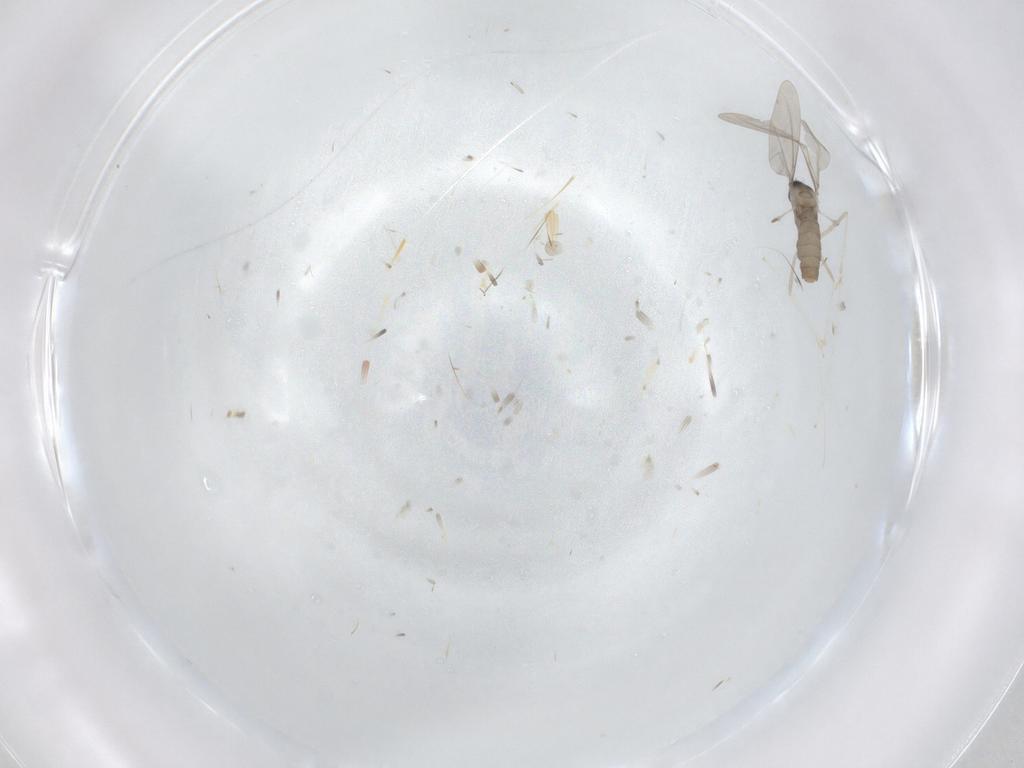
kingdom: Animalia
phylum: Arthropoda
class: Insecta
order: Diptera
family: Cecidomyiidae
